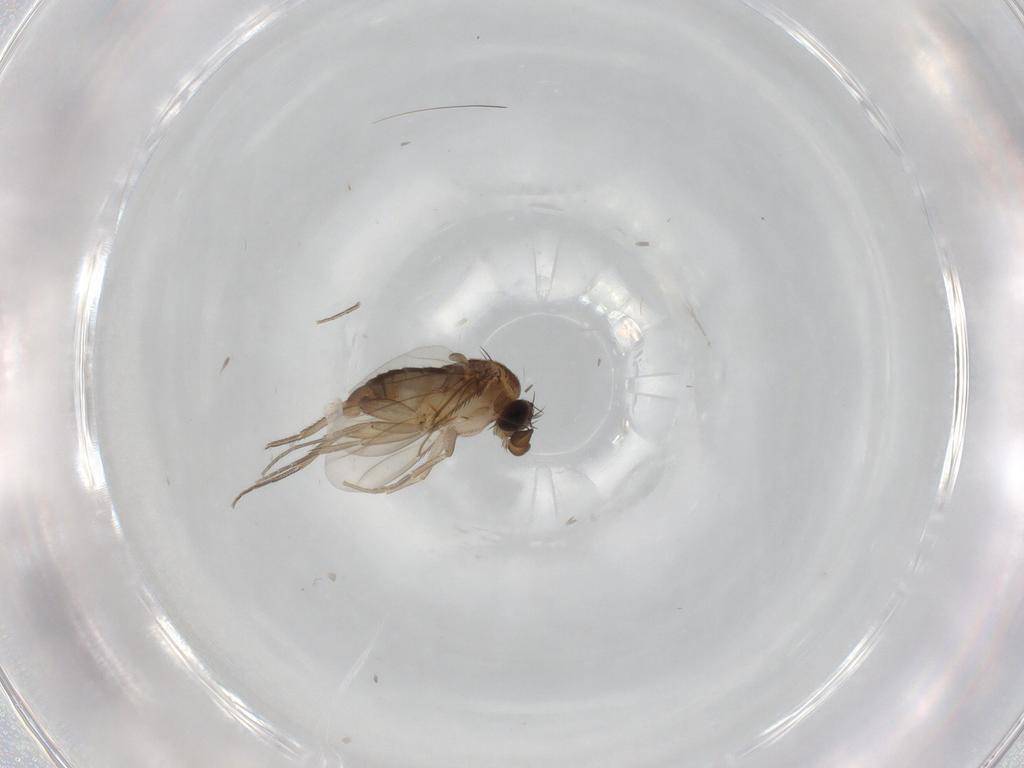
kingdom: Animalia
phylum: Arthropoda
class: Insecta
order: Diptera
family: Phoridae
